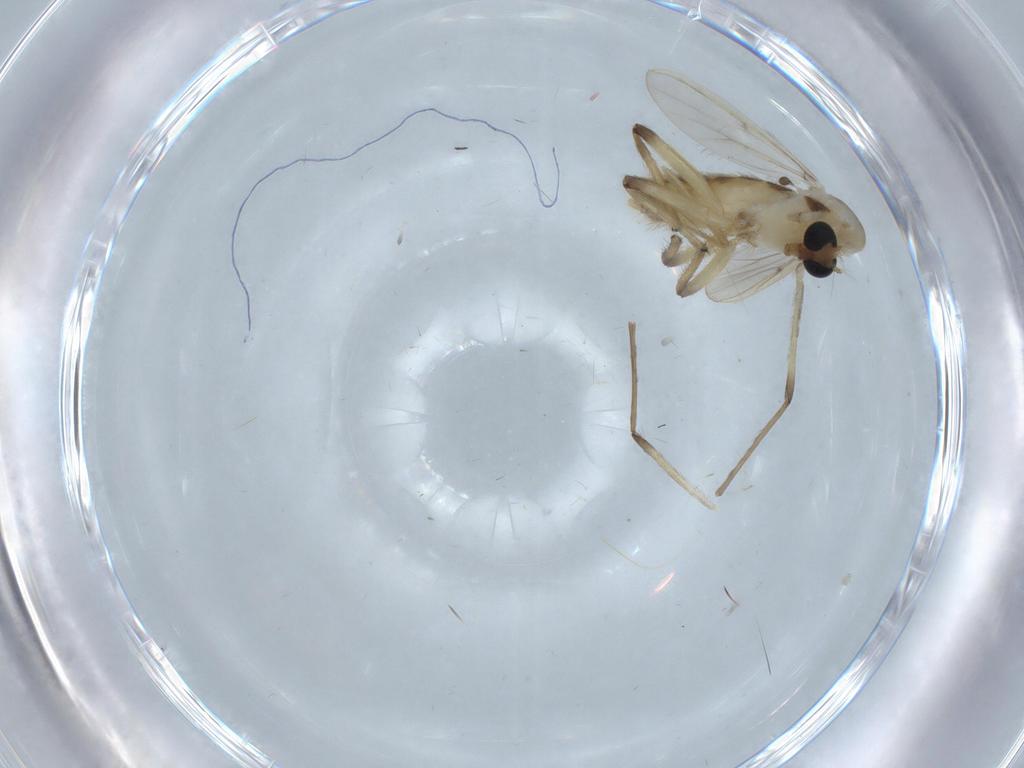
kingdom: Animalia
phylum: Arthropoda
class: Insecta
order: Diptera
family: Chironomidae
